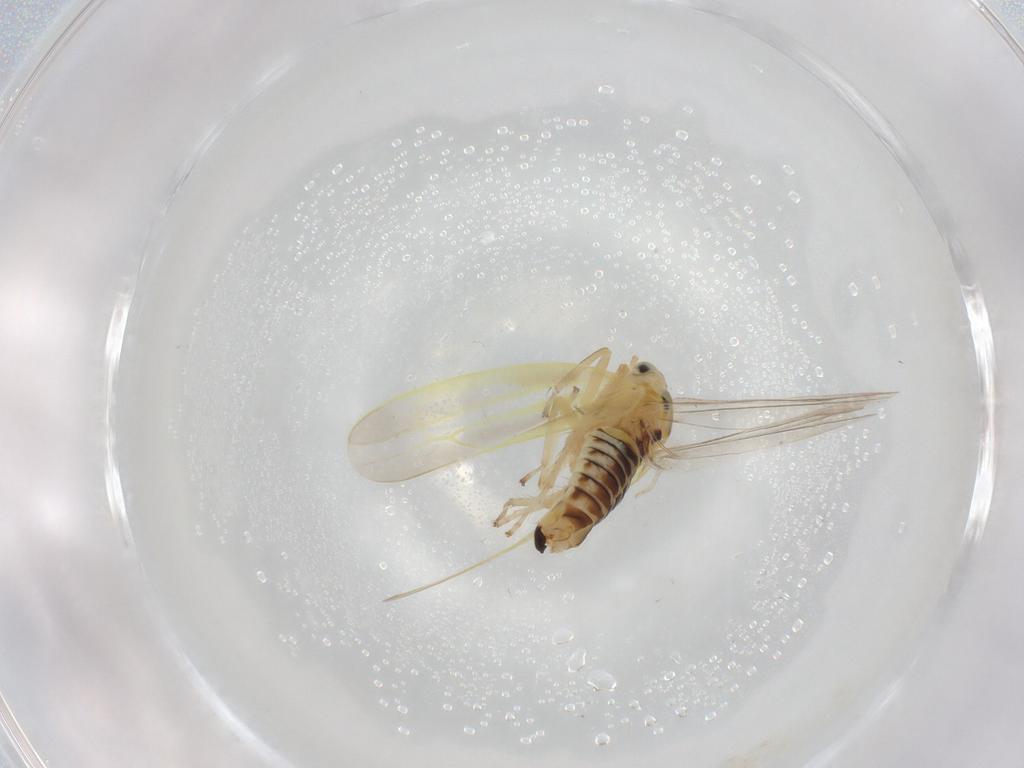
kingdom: Animalia
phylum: Arthropoda
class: Insecta
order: Hemiptera
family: Cicadellidae
